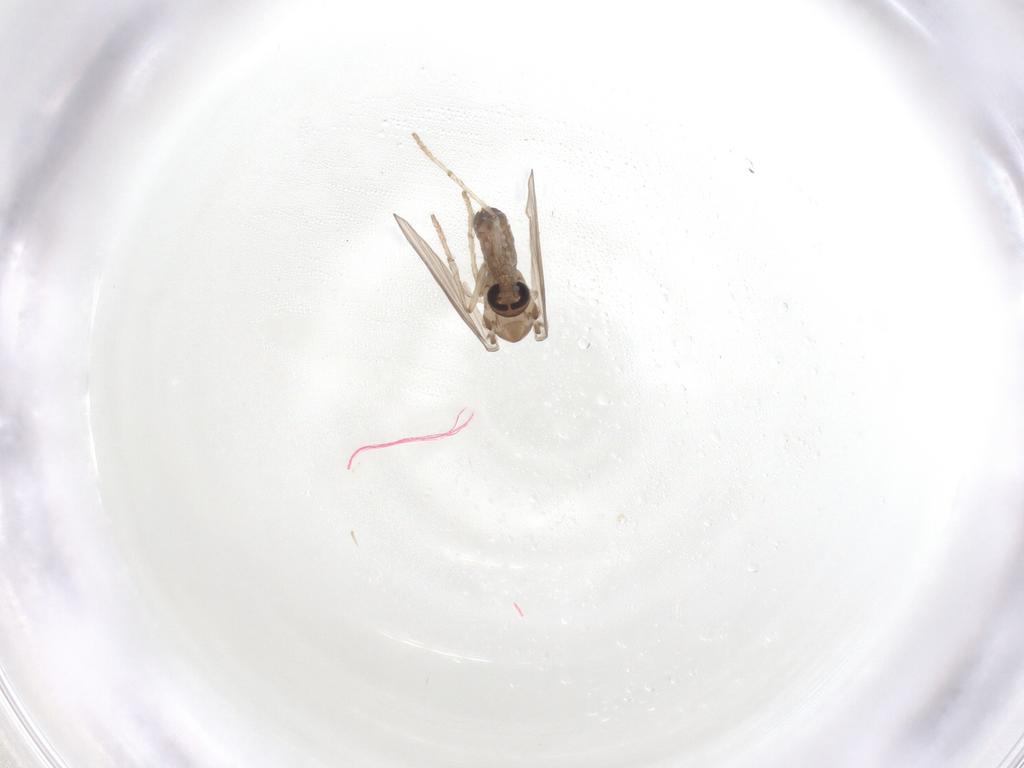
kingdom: Animalia
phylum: Arthropoda
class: Insecta
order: Diptera
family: Psychodidae
